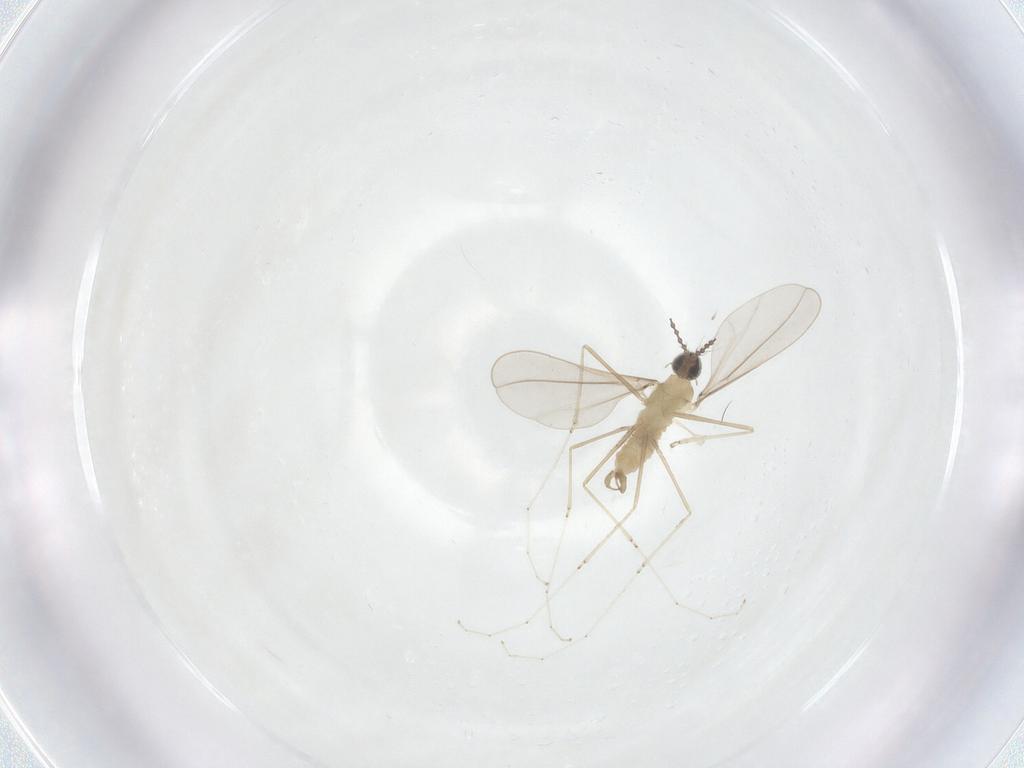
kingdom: Animalia
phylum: Arthropoda
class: Insecta
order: Diptera
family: Cecidomyiidae
